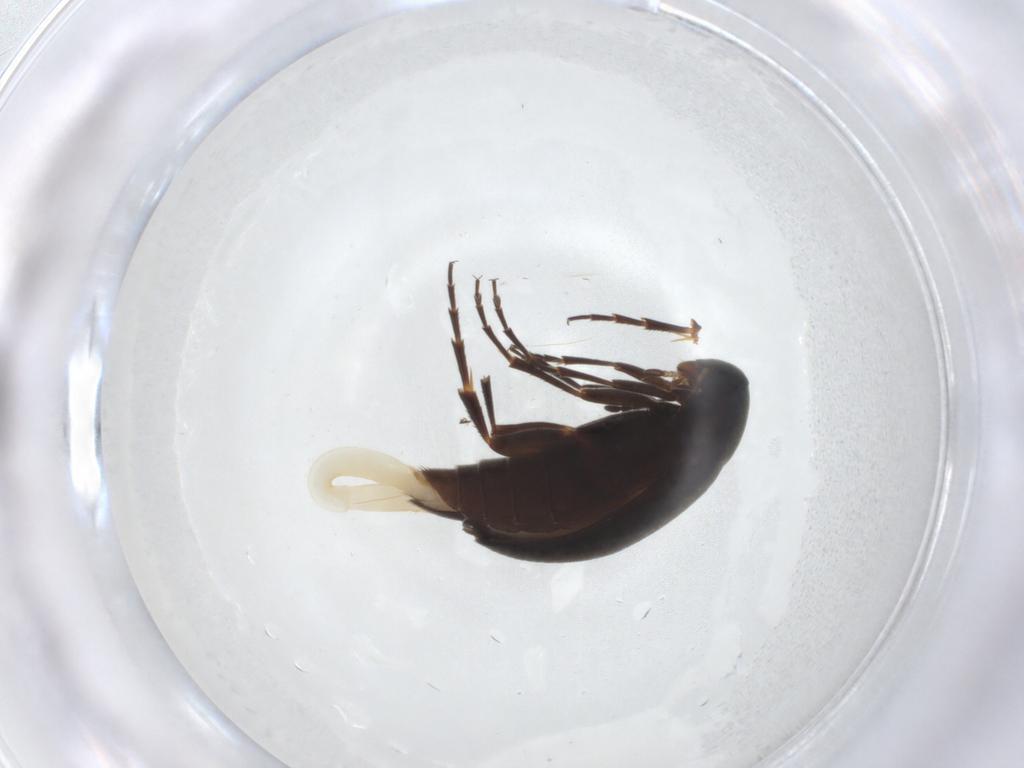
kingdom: Animalia
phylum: Arthropoda
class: Insecta
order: Coleoptera
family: Scraptiidae
